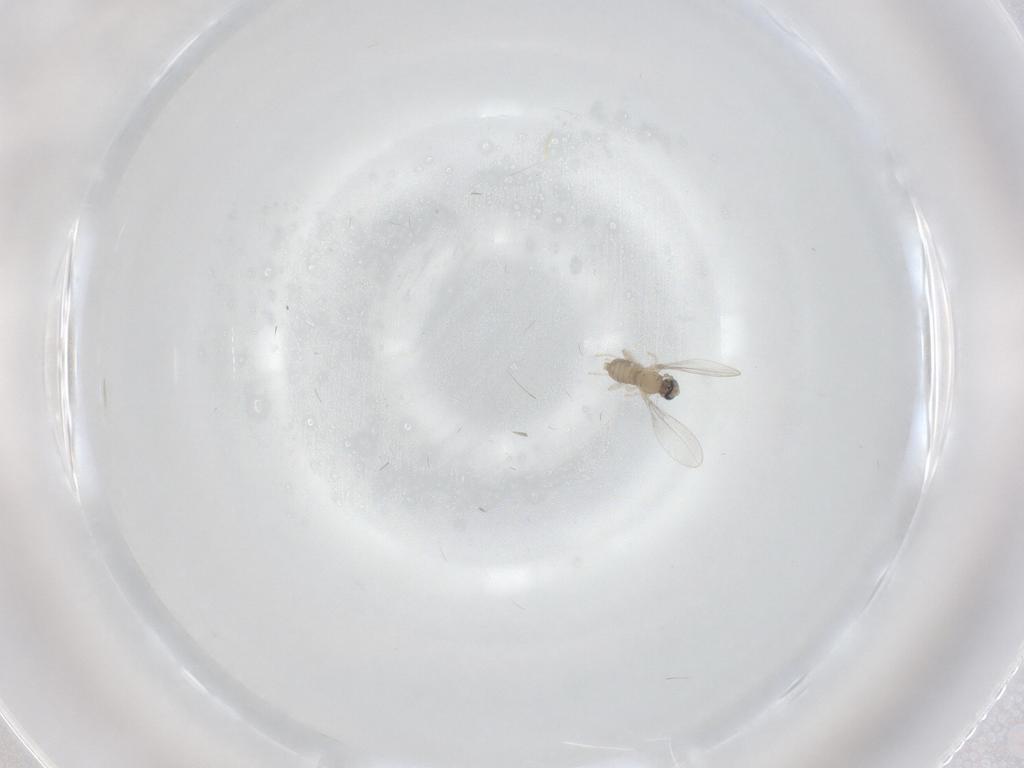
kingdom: Animalia
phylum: Arthropoda
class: Insecta
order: Diptera
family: Cecidomyiidae
